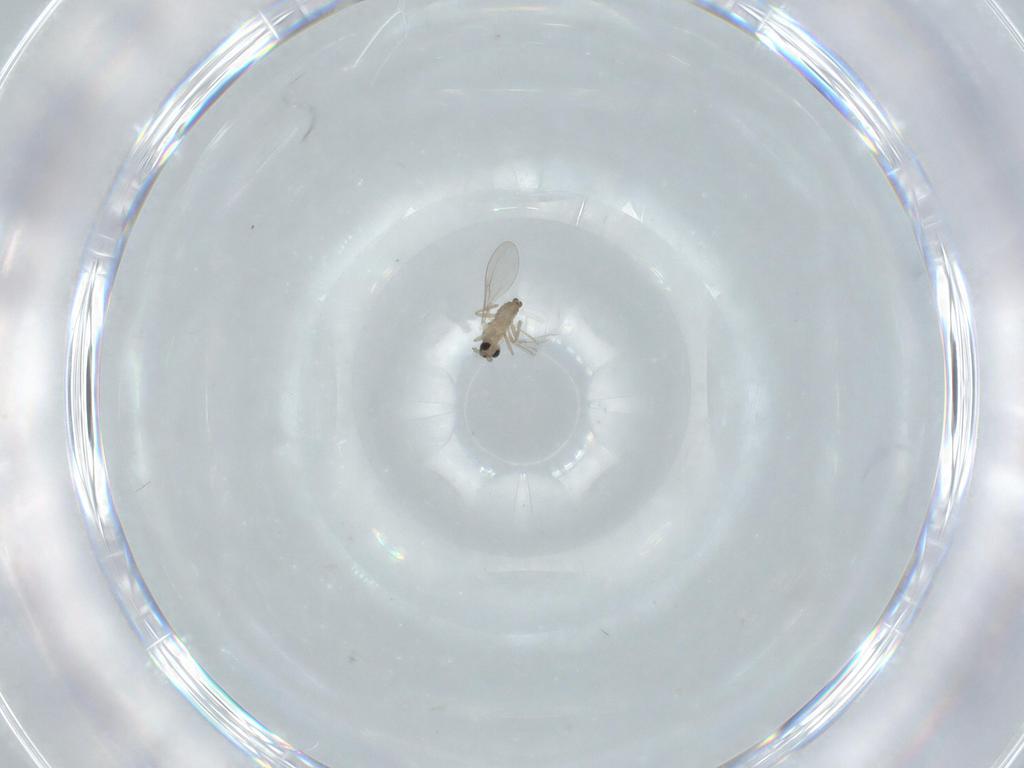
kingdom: Animalia
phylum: Arthropoda
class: Insecta
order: Diptera
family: Cecidomyiidae
